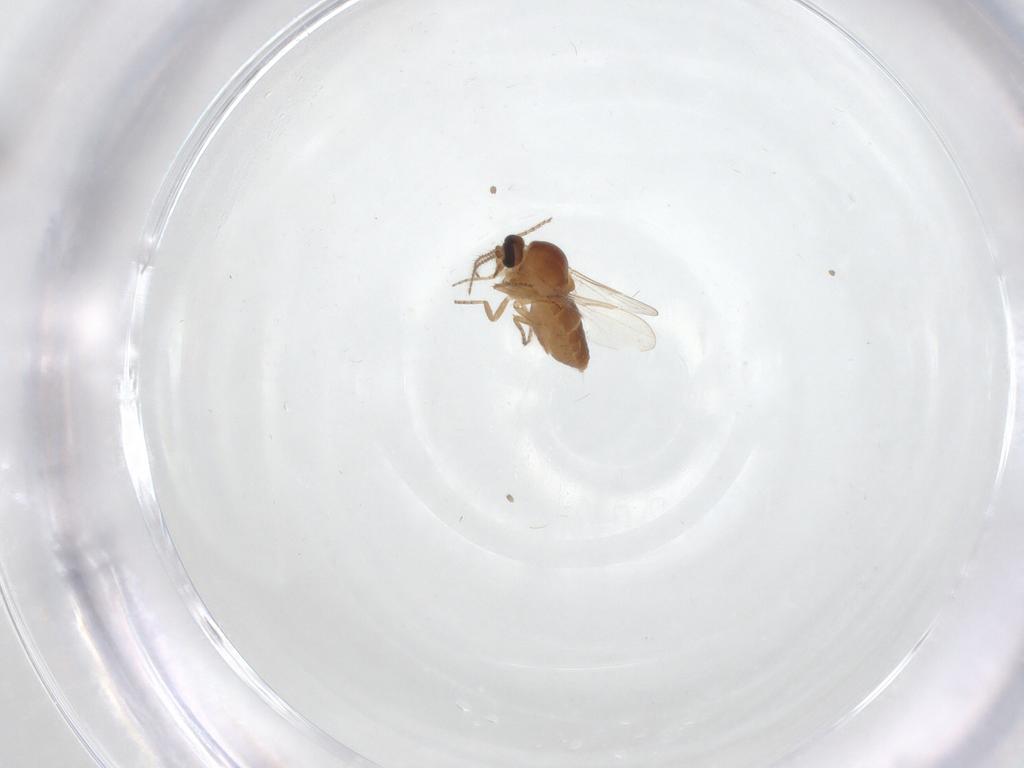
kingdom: Animalia
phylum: Arthropoda
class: Insecta
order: Diptera
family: Ceratopogonidae
